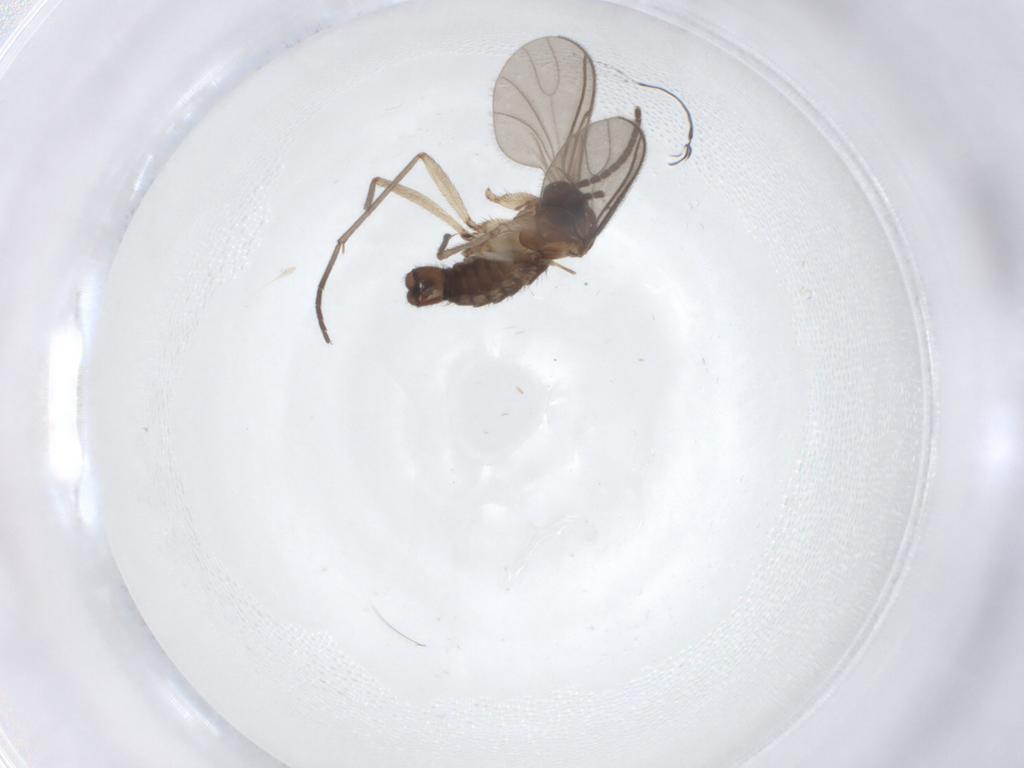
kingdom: Animalia
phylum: Arthropoda
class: Insecta
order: Diptera
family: Sciaridae
